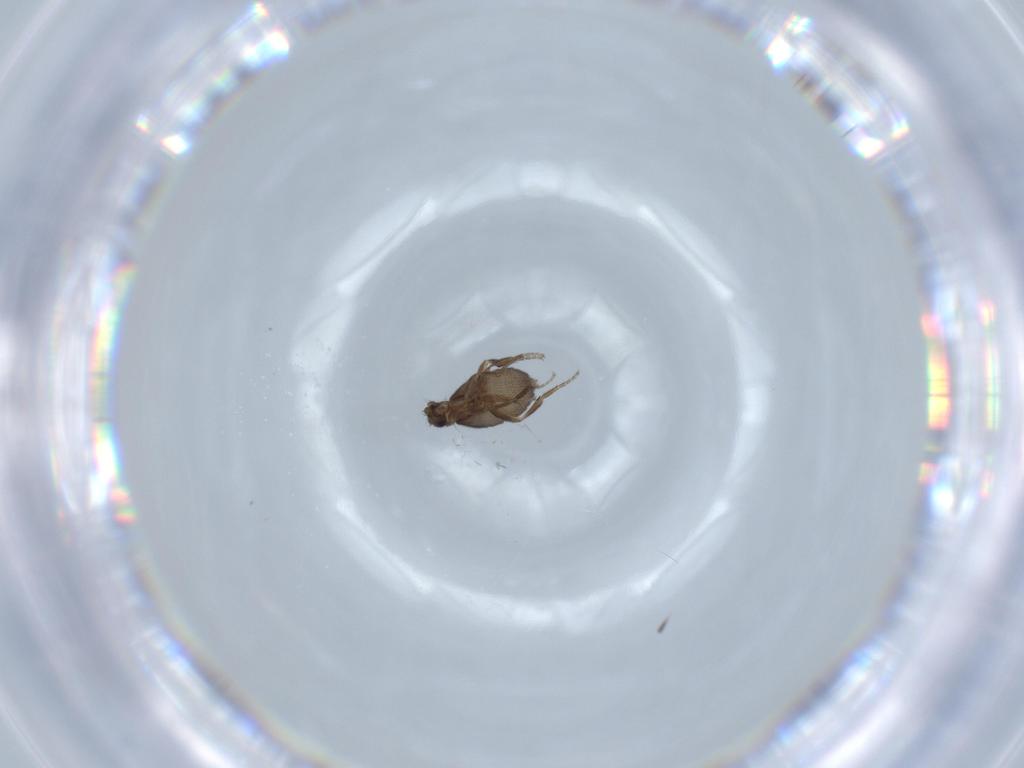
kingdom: Animalia
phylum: Arthropoda
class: Insecta
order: Diptera
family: Phoridae
